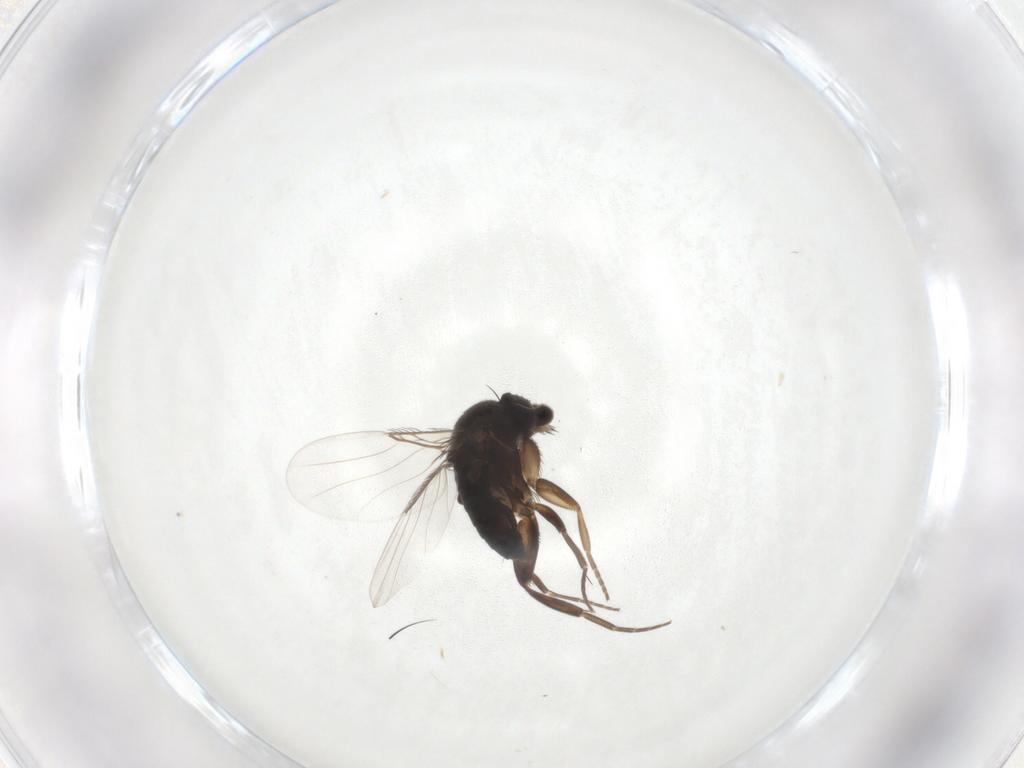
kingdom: Animalia
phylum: Arthropoda
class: Insecta
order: Diptera
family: Phoridae
